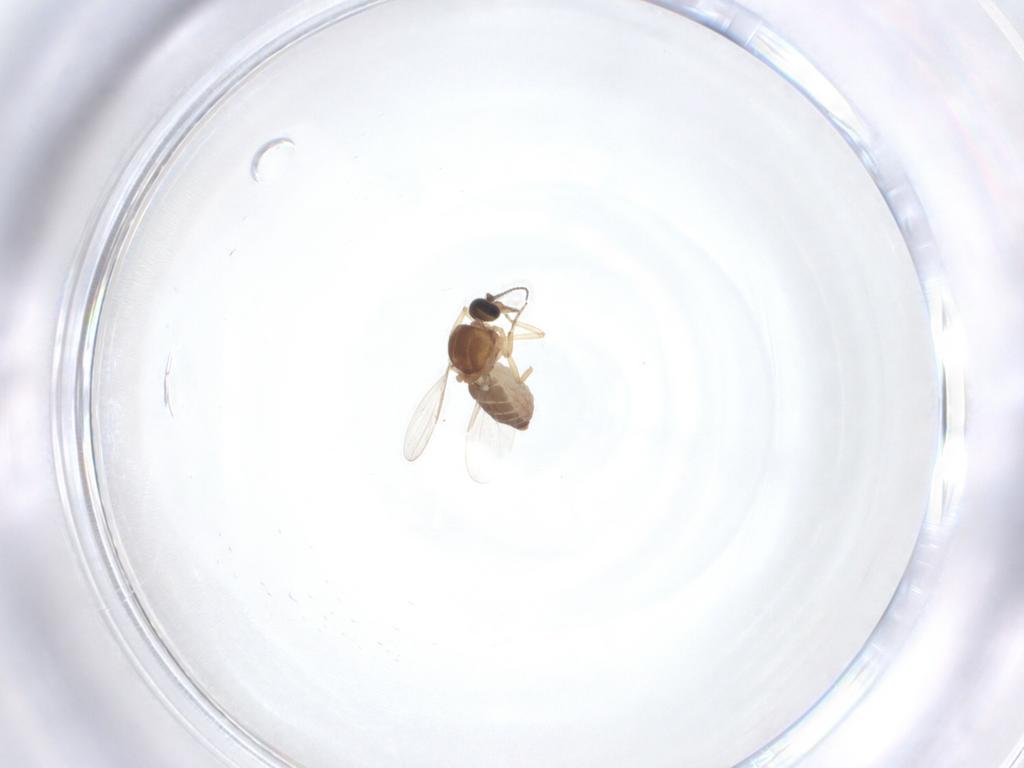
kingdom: Animalia
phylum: Arthropoda
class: Insecta
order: Diptera
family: Ceratopogonidae
